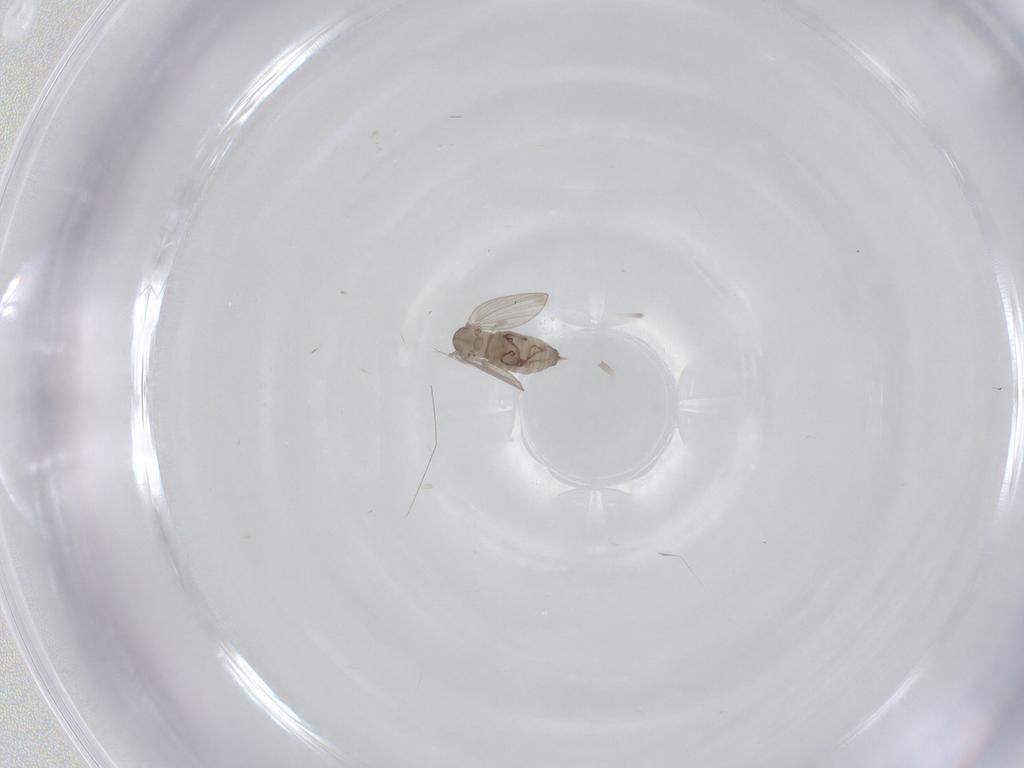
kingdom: Animalia
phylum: Arthropoda
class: Insecta
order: Diptera
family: Psychodidae
